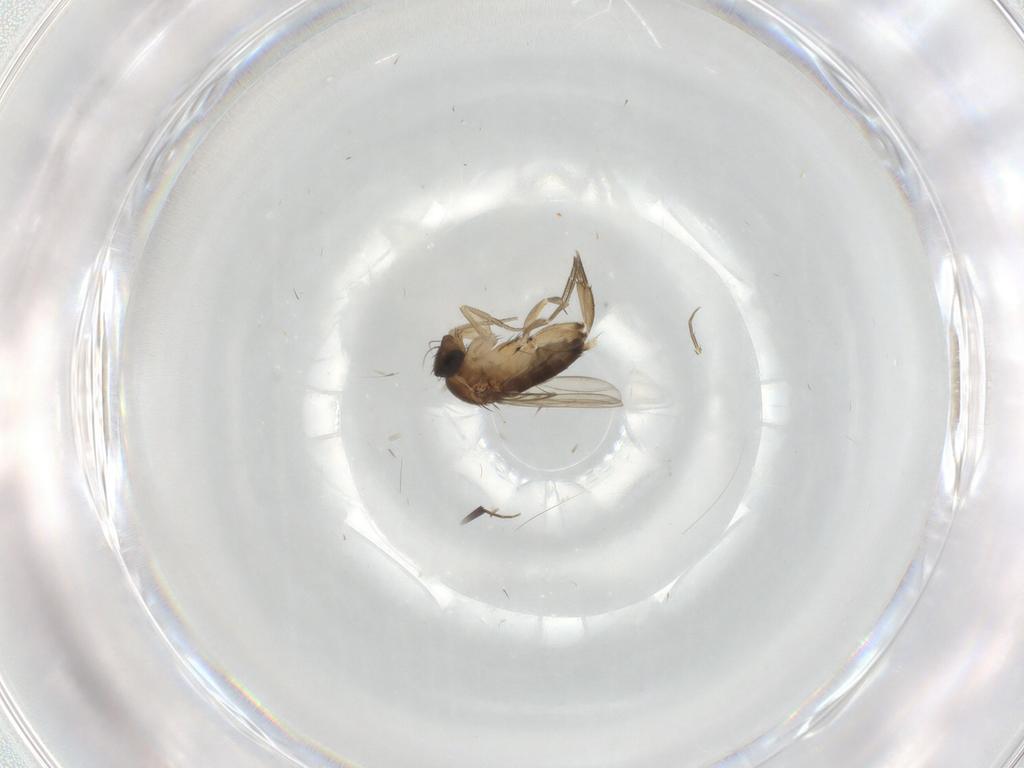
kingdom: Animalia
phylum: Arthropoda
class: Insecta
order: Diptera
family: Phoridae
